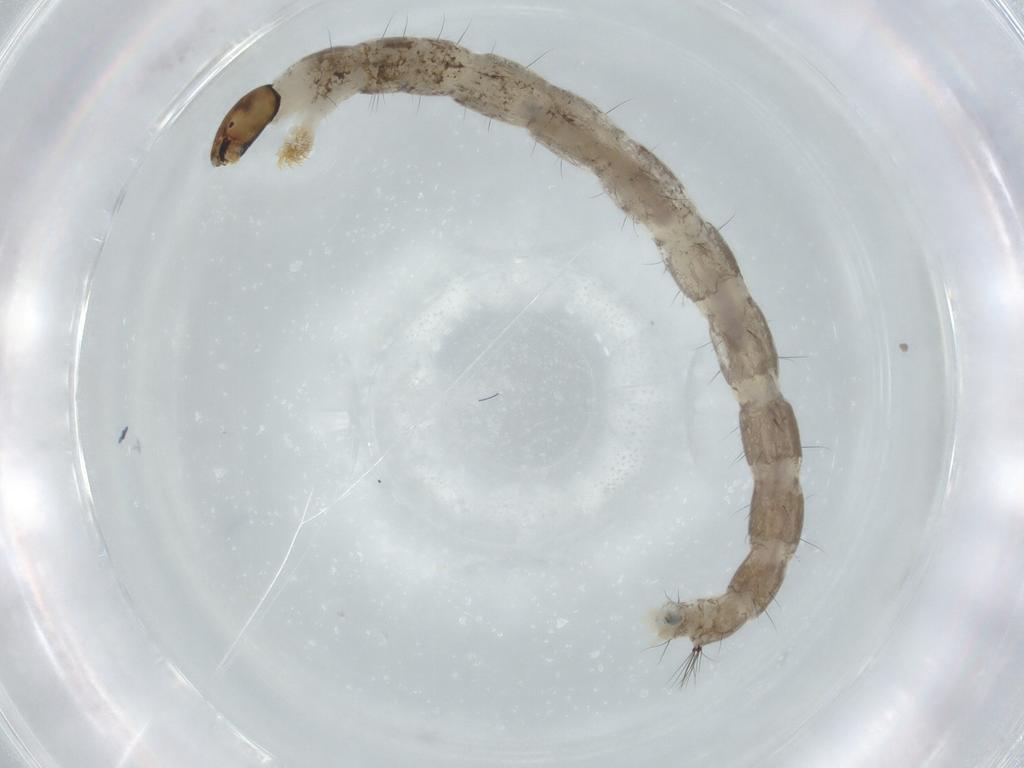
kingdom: Animalia
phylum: Arthropoda
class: Insecta
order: Diptera
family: Chironomidae
